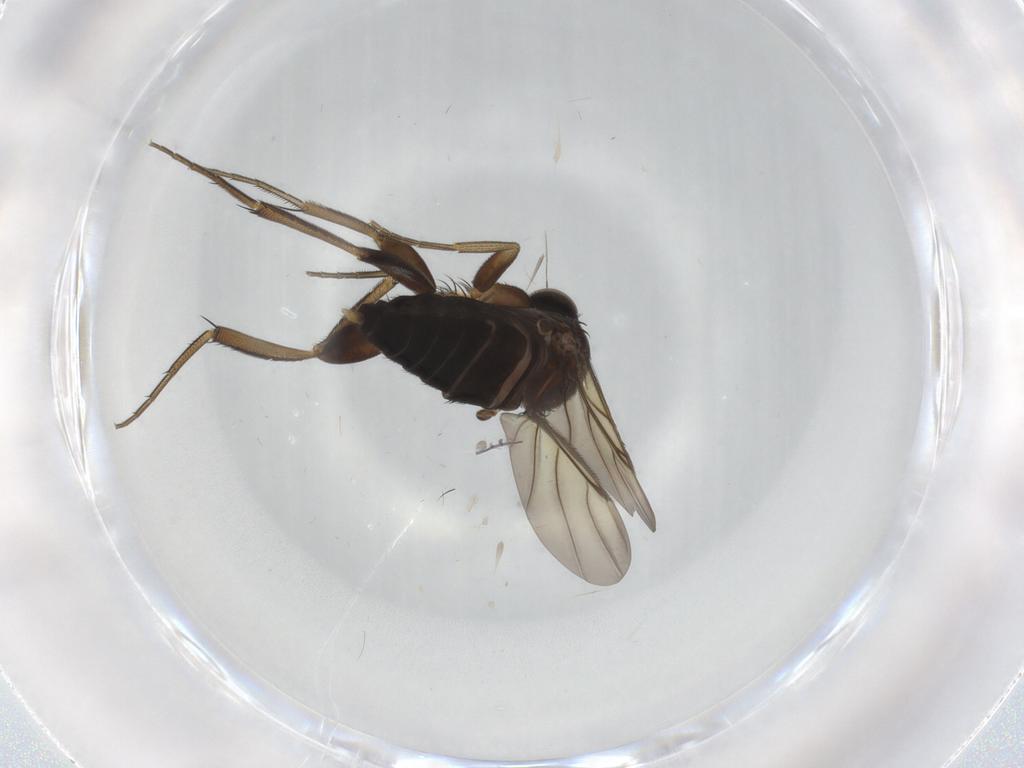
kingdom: Animalia
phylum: Arthropoda
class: Insecta
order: Diptera
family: Phoridae
